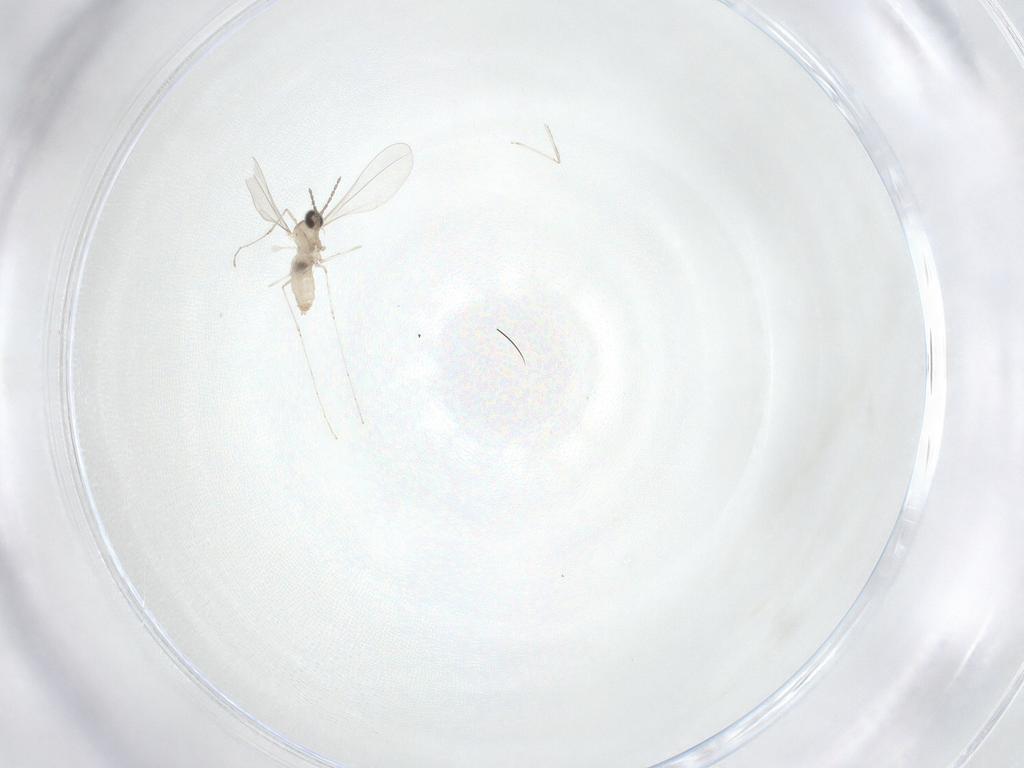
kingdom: Animalia
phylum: Arthropoda
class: Insecta
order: Diptera
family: Cecidomyiidae
